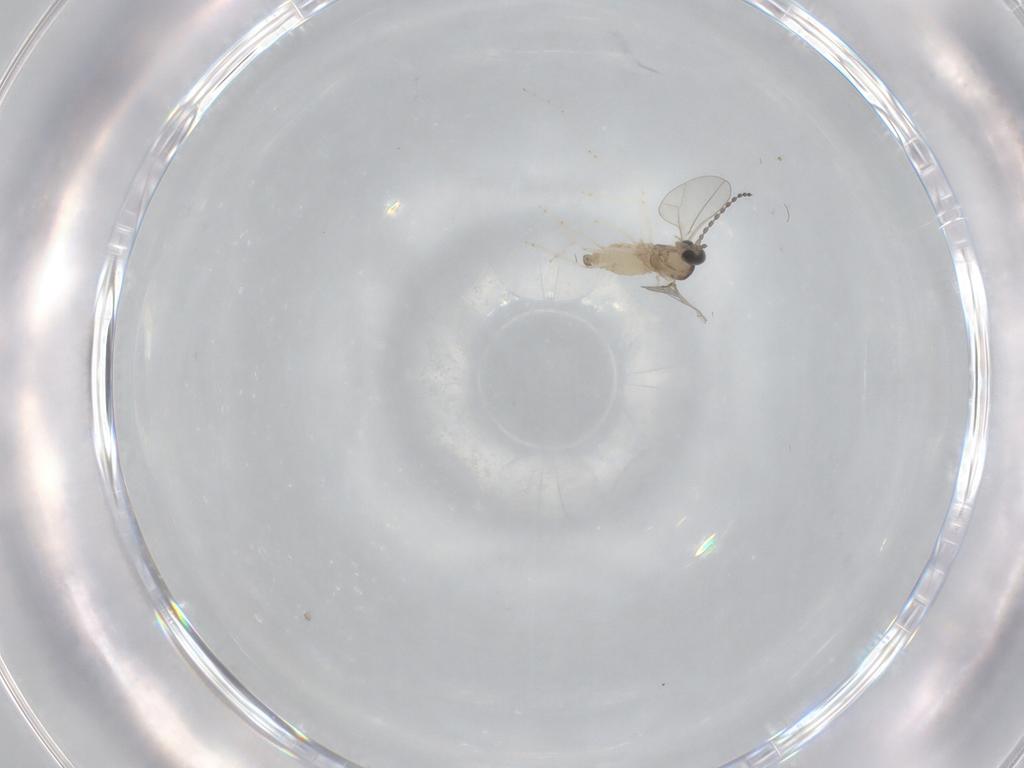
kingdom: Animalia
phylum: Arthropoda
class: Insecta
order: Diptera
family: Cecidomyiidae
